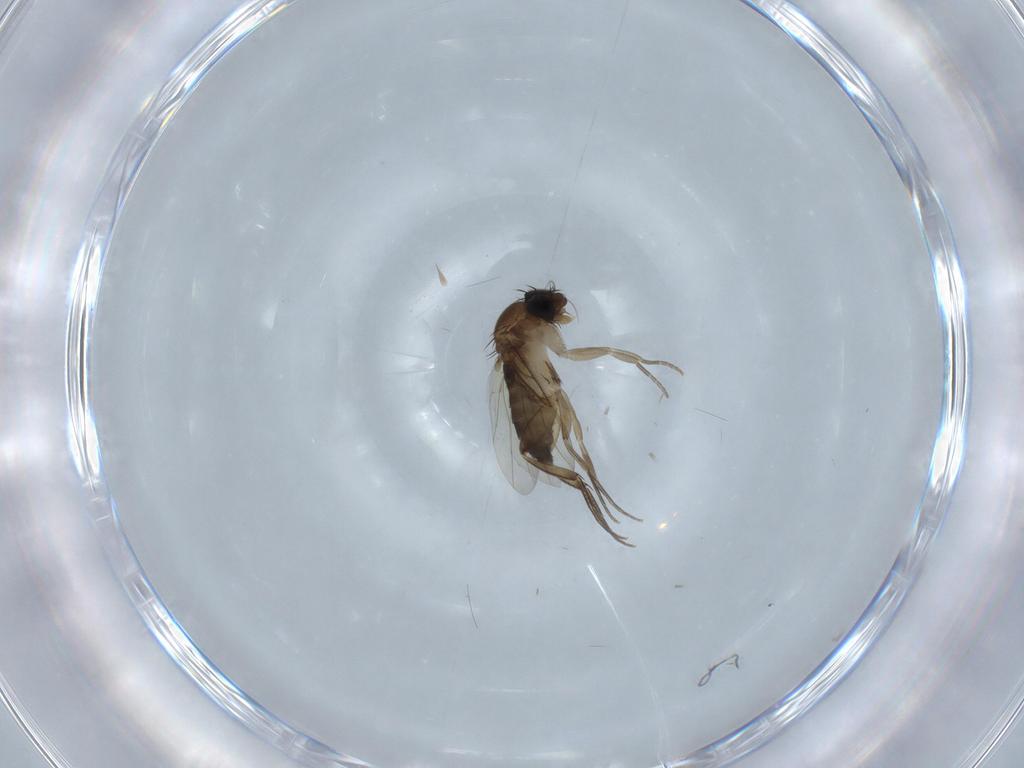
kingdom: Animalia
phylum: Arthropoda
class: Insecta
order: Diptera
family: Phoridae
